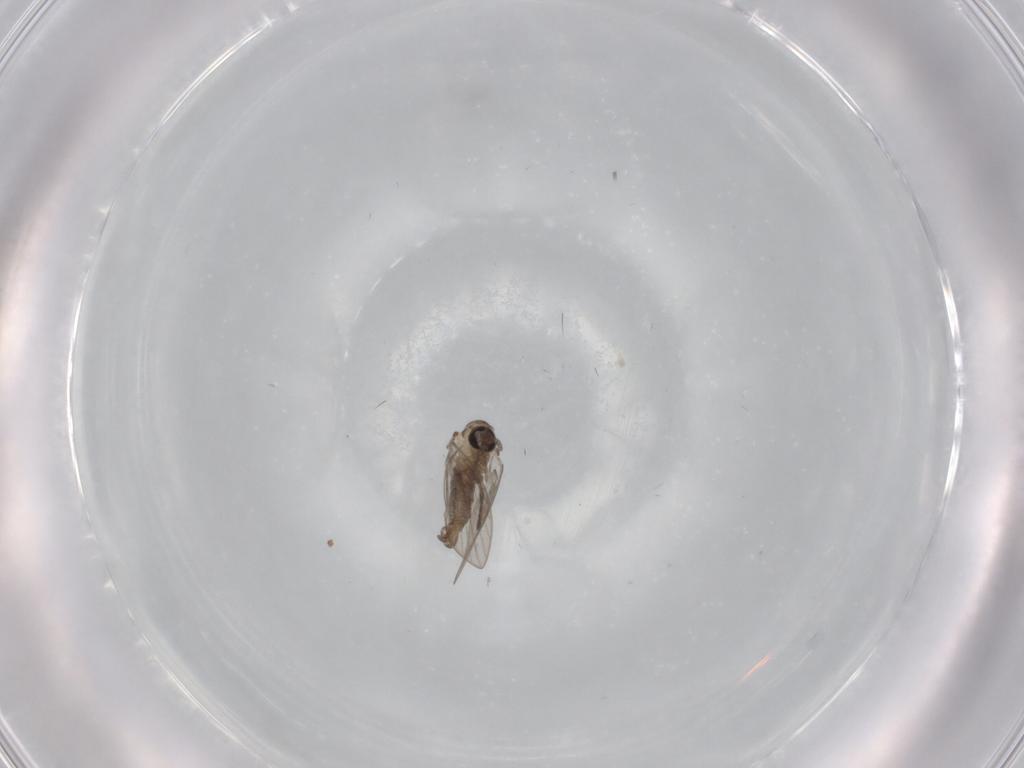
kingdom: Animalia
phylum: Arthropoda
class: Insecta
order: Diptera
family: Psychodidae
